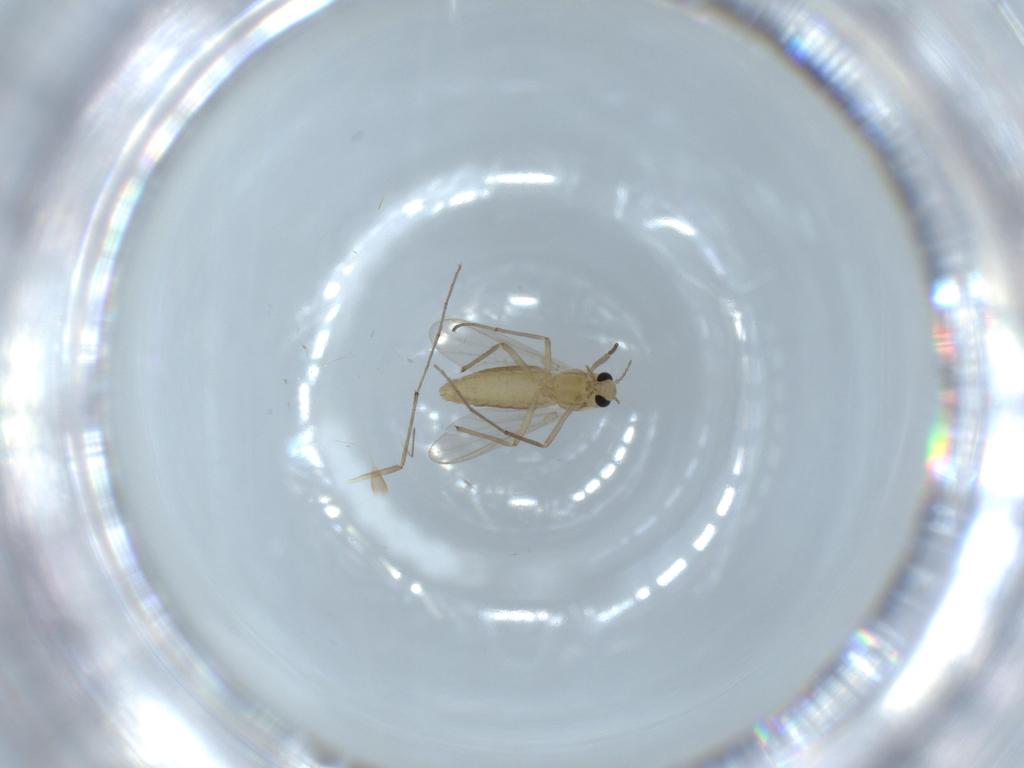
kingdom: Animalia
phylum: Arthropoda
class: Insecta
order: Diptera
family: Chironomidae
